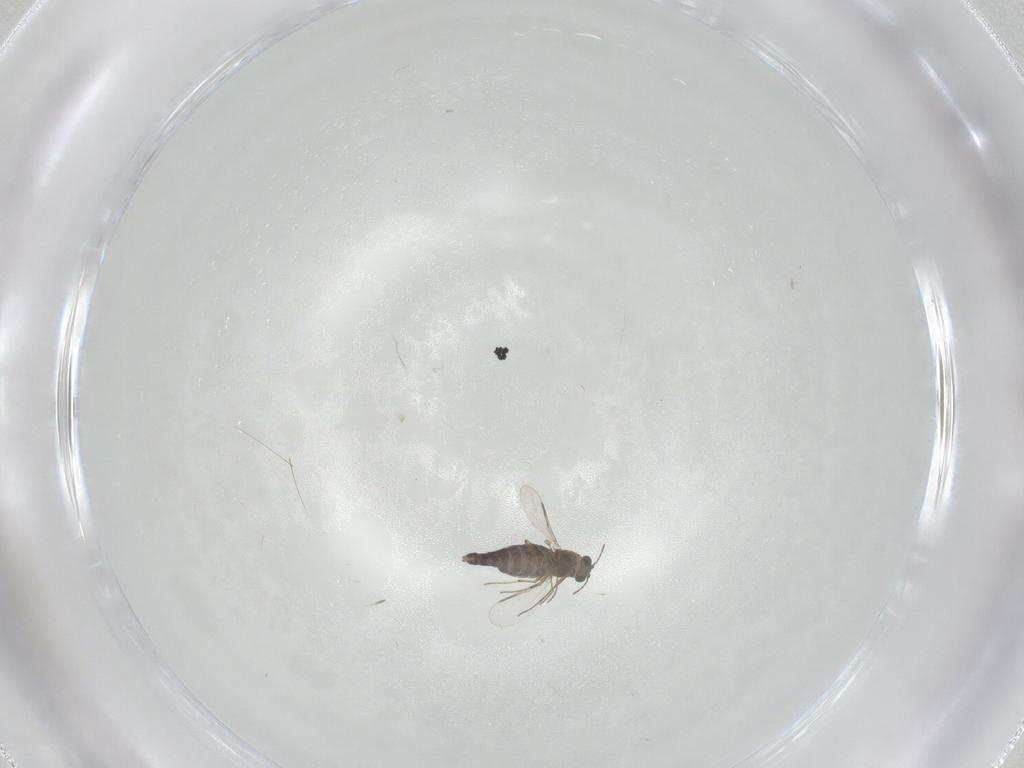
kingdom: Animalia
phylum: Arthropoda
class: Insecta
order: Diptera
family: Chironomidae
